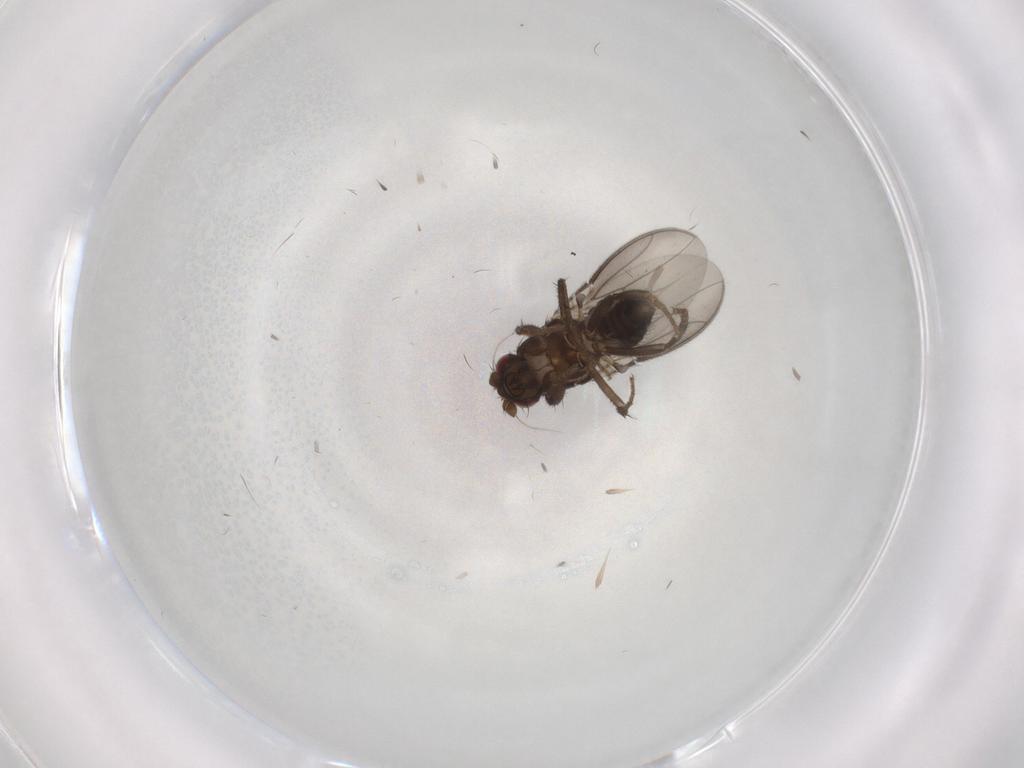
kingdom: Animalia
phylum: Arthropoda
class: Insecta
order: Diptera
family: Sphaeroceridae
